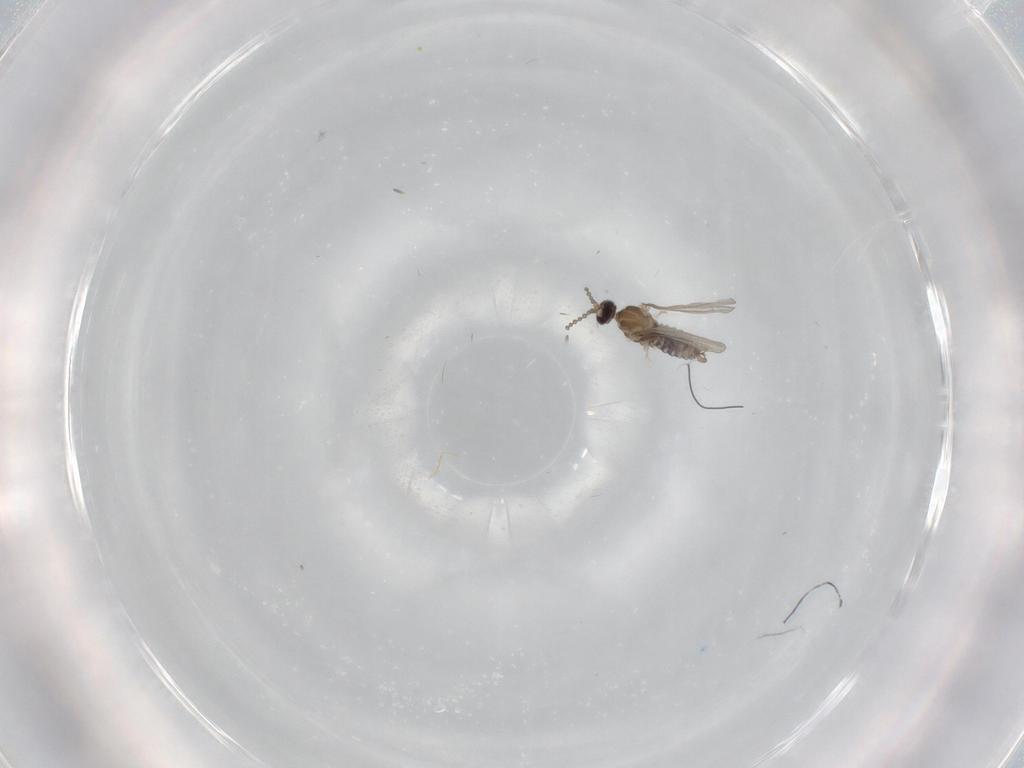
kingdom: Animalia
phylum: Arthropoda
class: Insecta
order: Diptera
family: Cecidomyiidae
